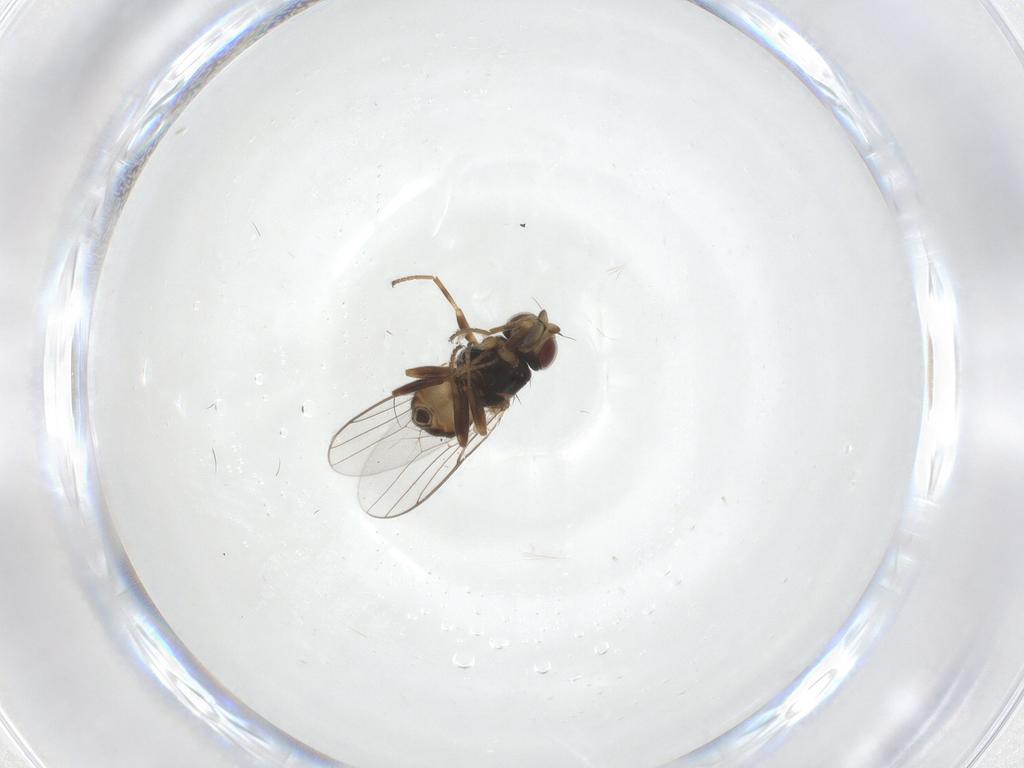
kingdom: Animalia
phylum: Arthropoda
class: Insecta
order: Diptera
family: Chloropidae
